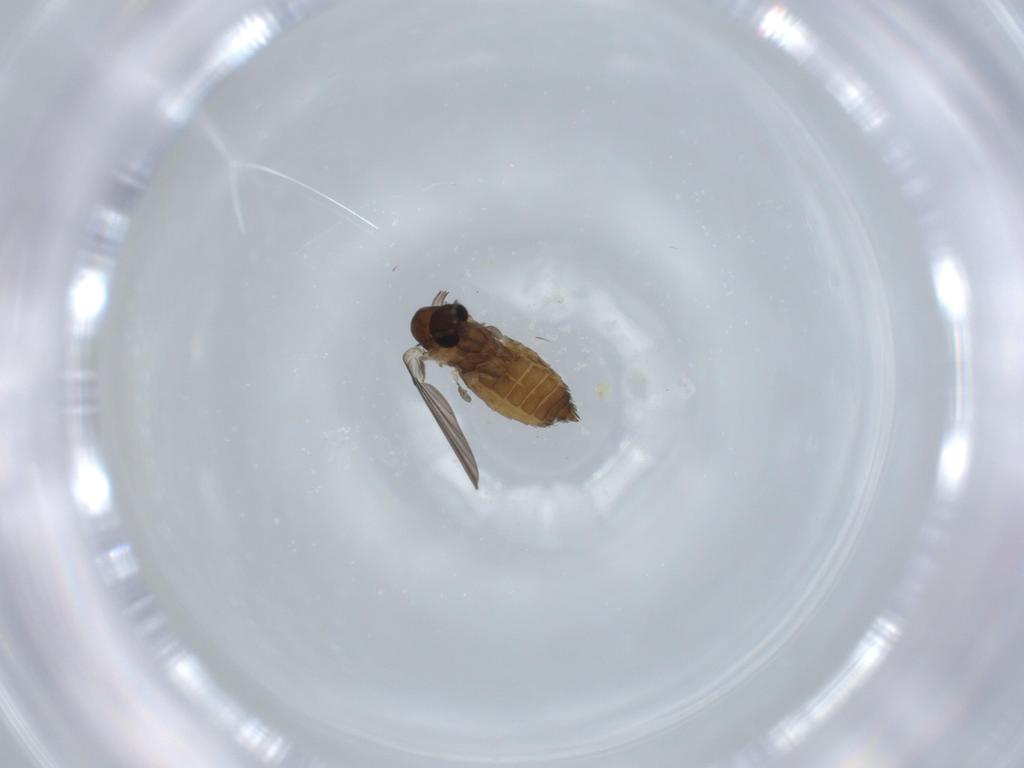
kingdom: Animalia
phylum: Arthropoda
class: Insecta
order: Diptera
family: Psychodidae
